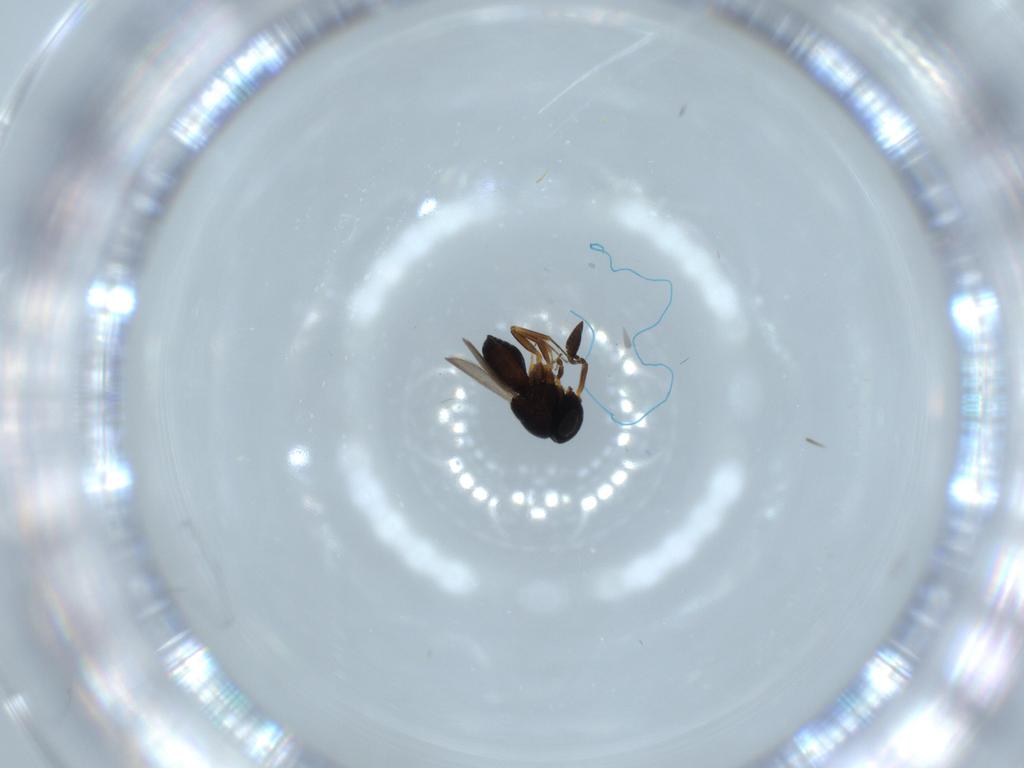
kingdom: Animalia
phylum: Arthropoda
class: Insecta
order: Hymenoptera
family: Scelionidae
